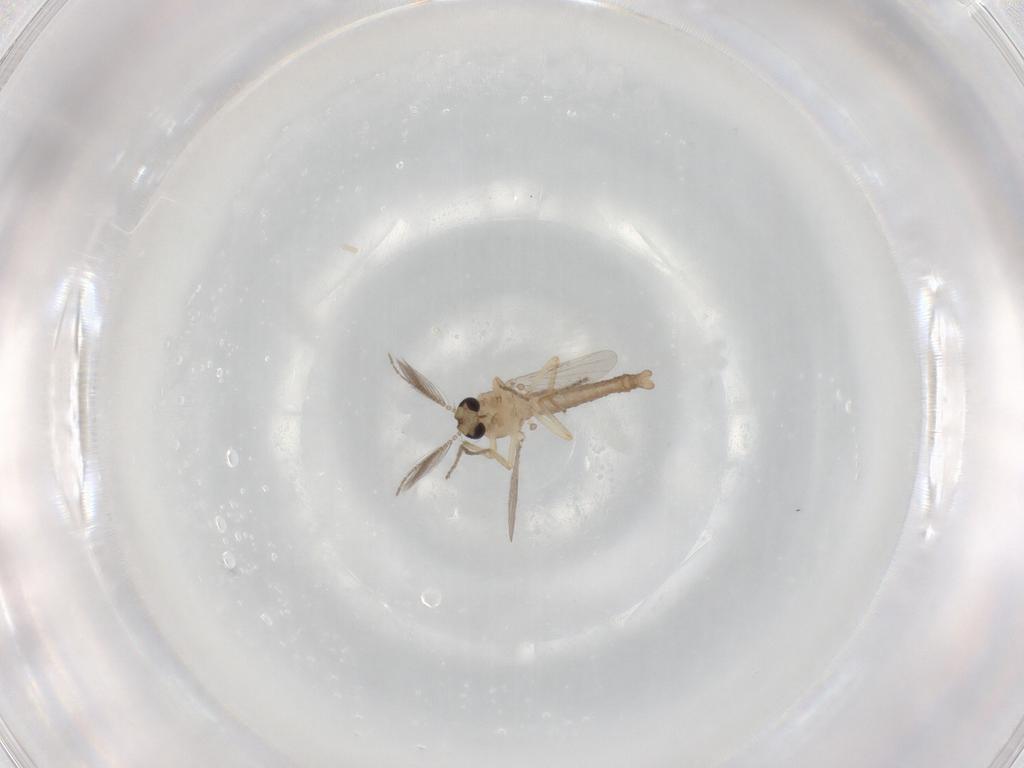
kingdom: Animalia
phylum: Arthropoda
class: Insecta
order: Diptera
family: Ceratopogonidae
